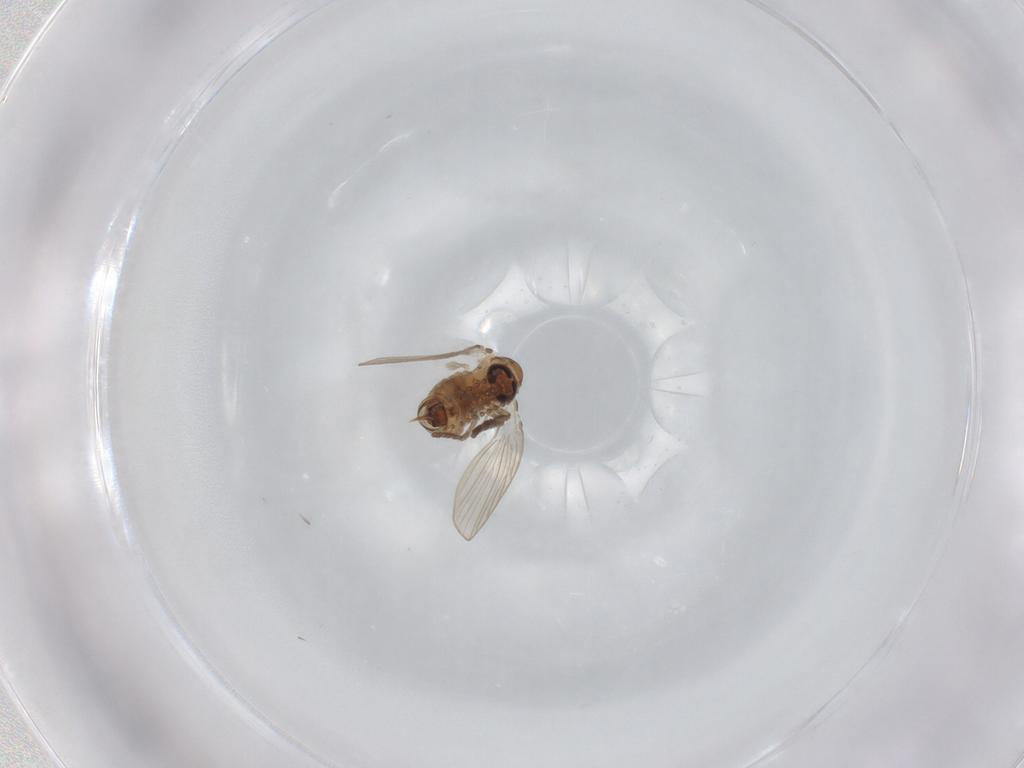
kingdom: Animalia
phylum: Arthropoda
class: Insecta
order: Diptera
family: Psychodidae
